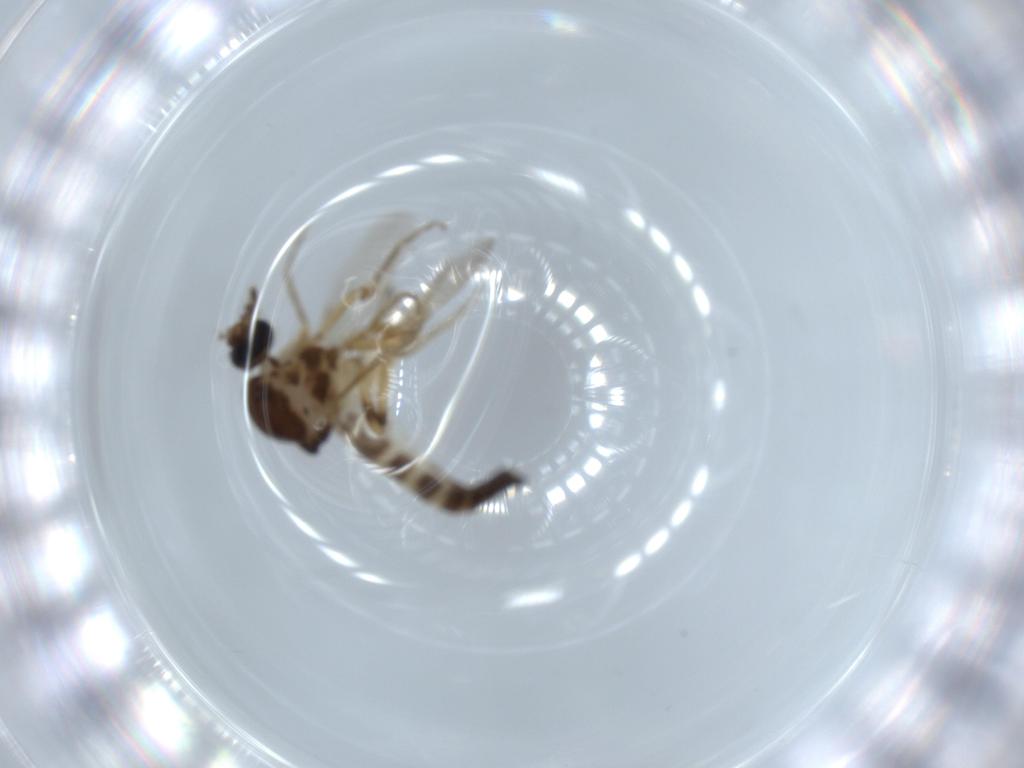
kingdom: Animalia
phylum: Arthropoda
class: Insecta
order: Diptera
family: Ceratopogonidae
